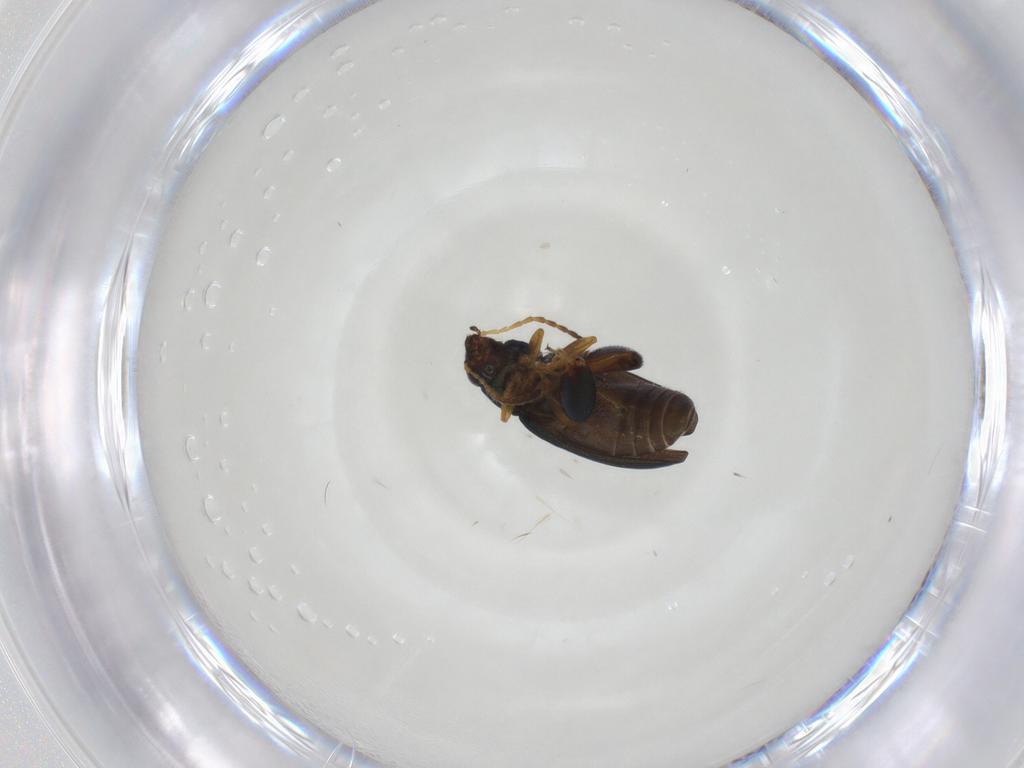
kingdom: Animalia
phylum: Arthropoda
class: Insecta
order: Coleoptera
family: Chrysomelidae
